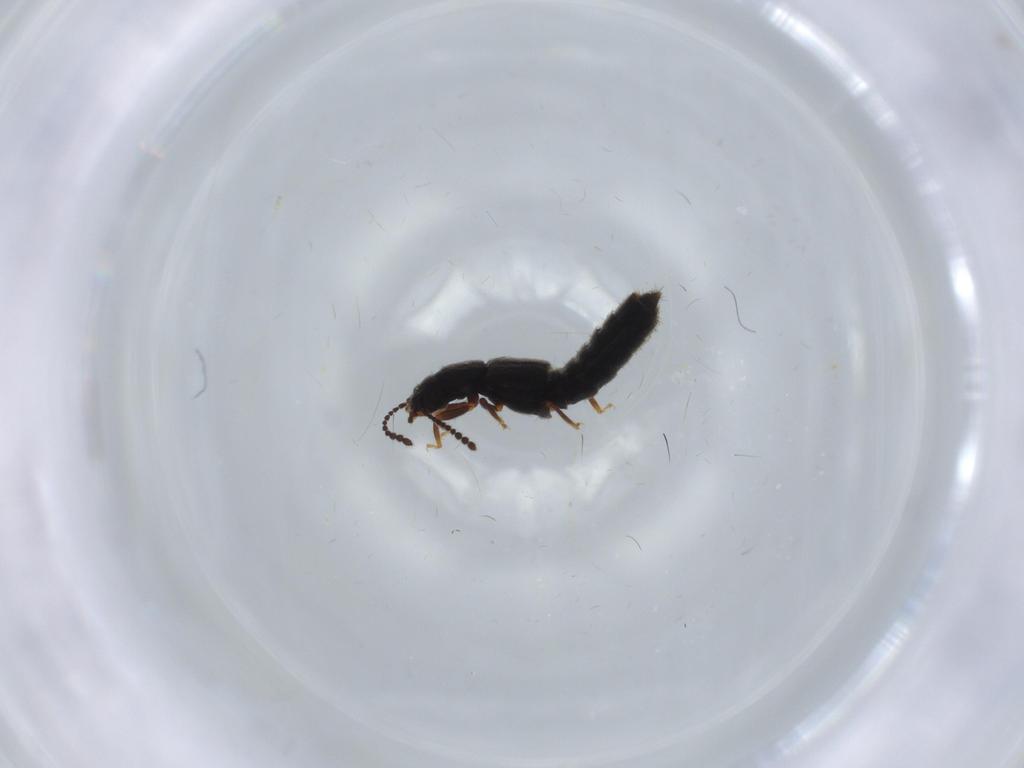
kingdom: Animalia
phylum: Arthropoda
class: Insecta
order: Coleoptera
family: Staphylinidae
